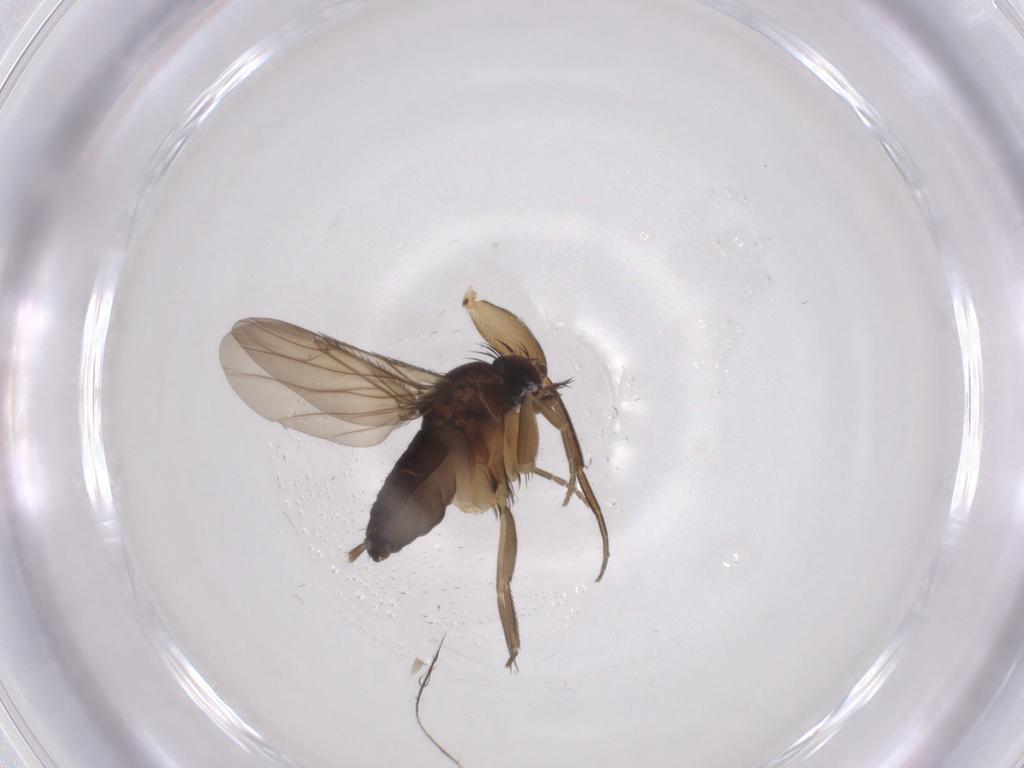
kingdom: Animalia
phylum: Arthropoda
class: Insecta
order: Diptera
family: Phoridae
